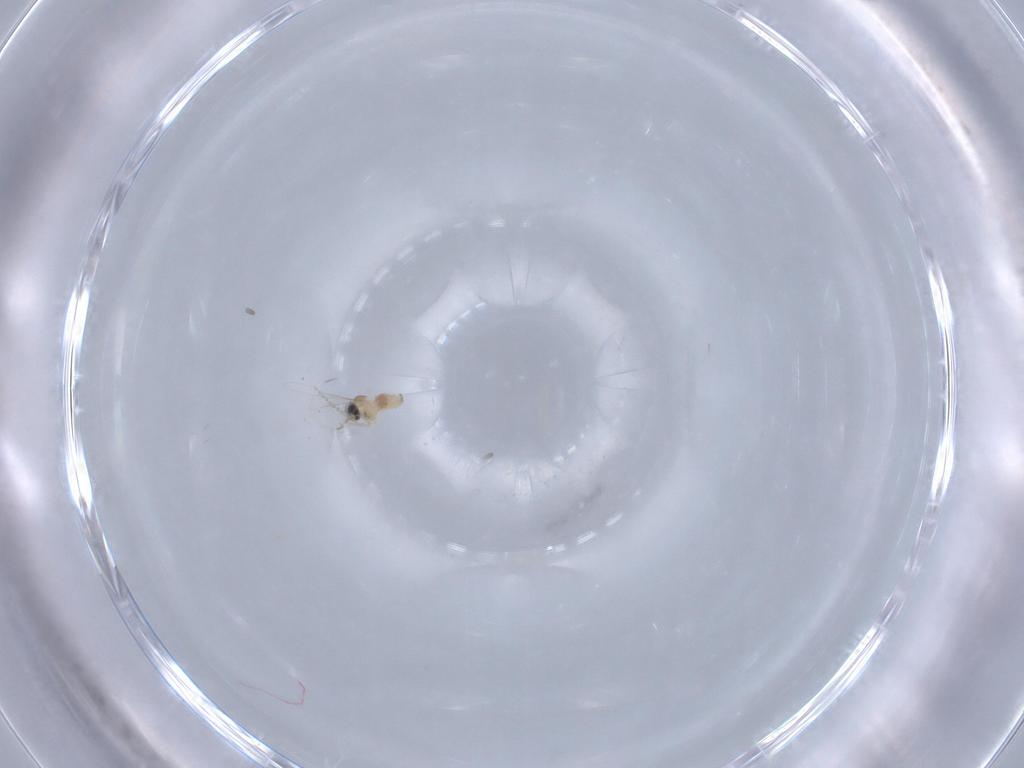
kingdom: Animalia
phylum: Arthropoda
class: Insecta
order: Diptera
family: Cecidomyiidae
